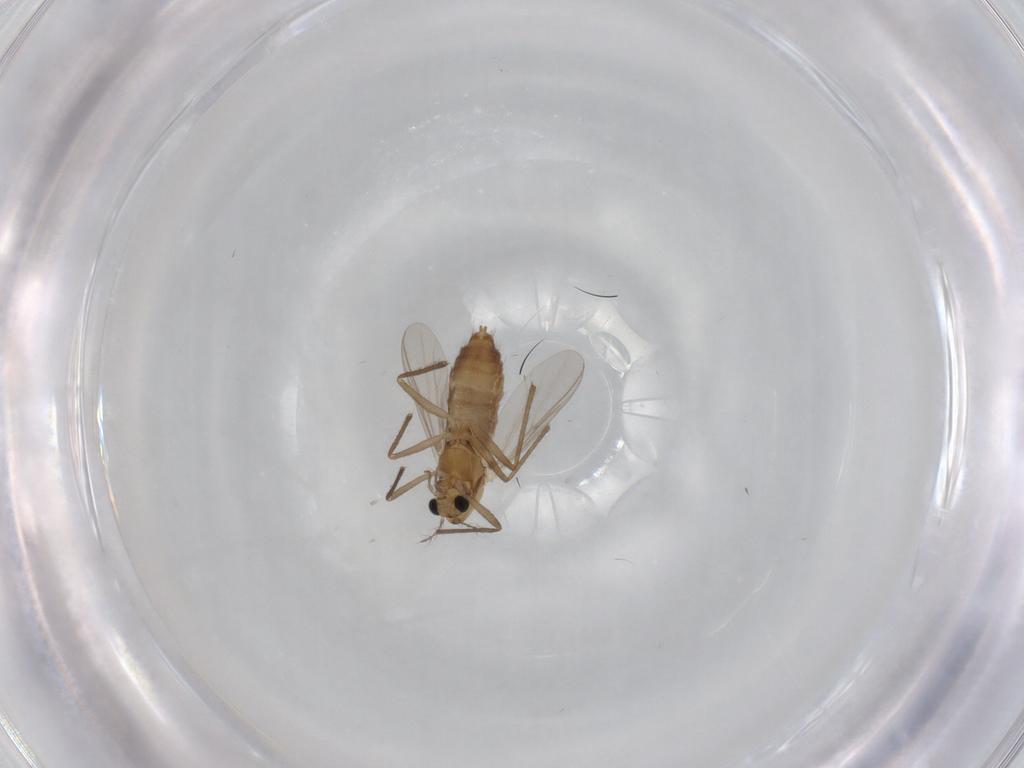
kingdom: Animalia
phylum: Arthropoda
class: Insecta
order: Diptera
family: Chironomidae
